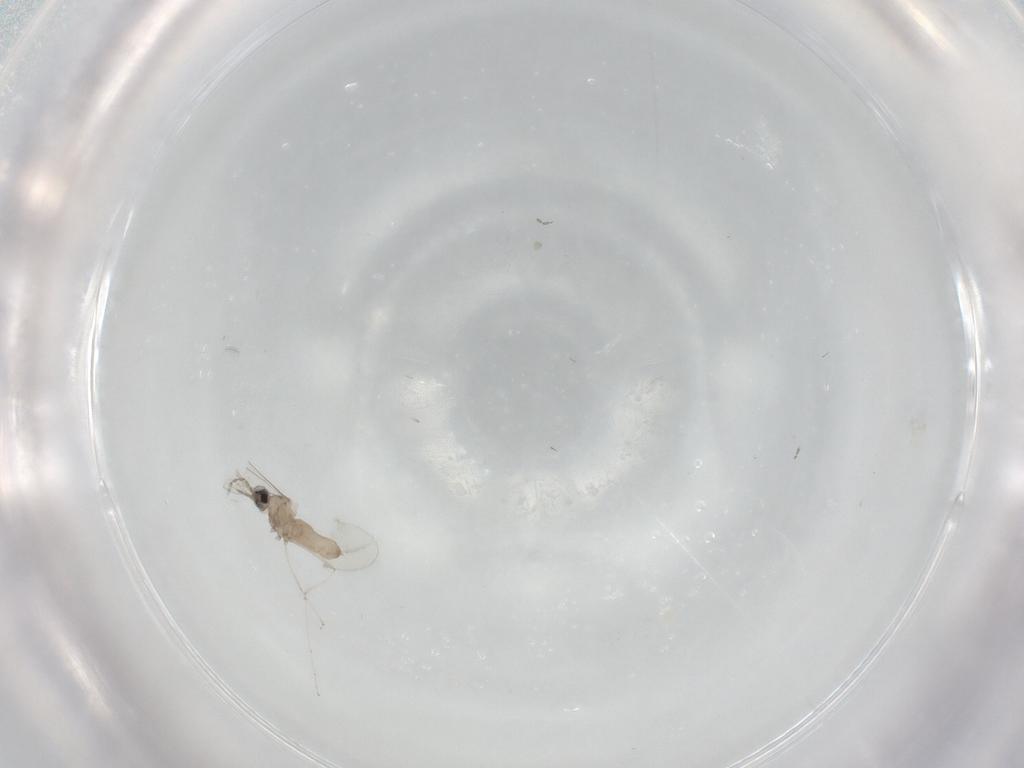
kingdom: Animalia
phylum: Arthropoda
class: Insecta
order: Diptera
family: Cecidomyiidae
